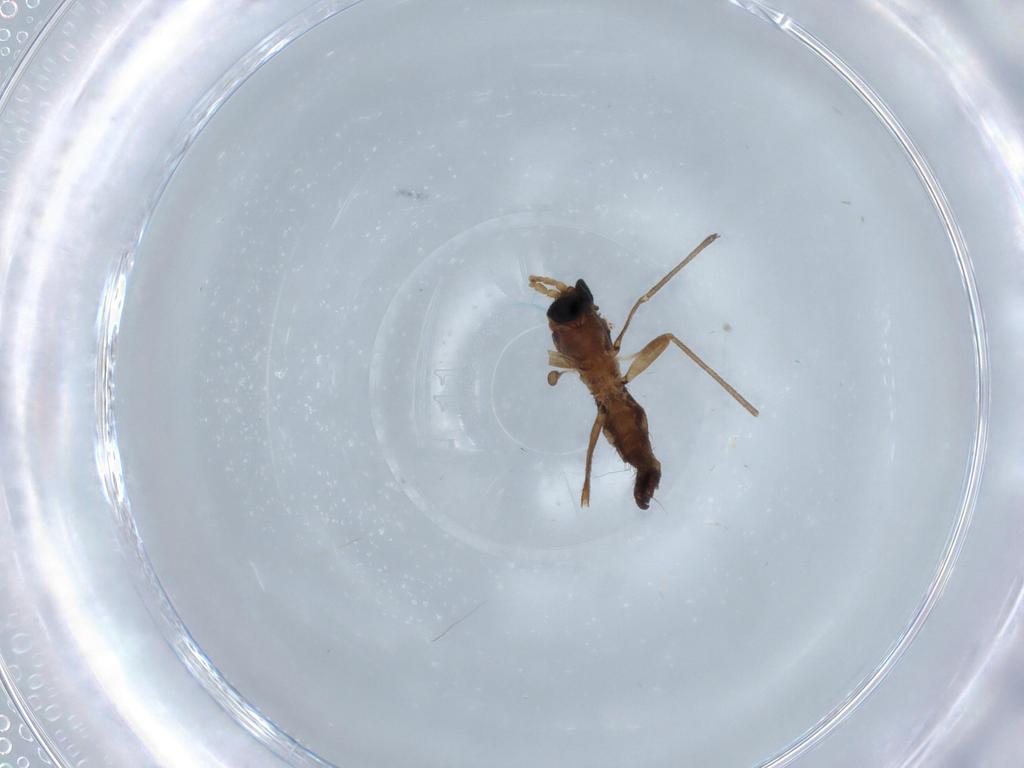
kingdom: Animalia
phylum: Arthropoda
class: Insecta
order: Diptera
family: Sciaridae
